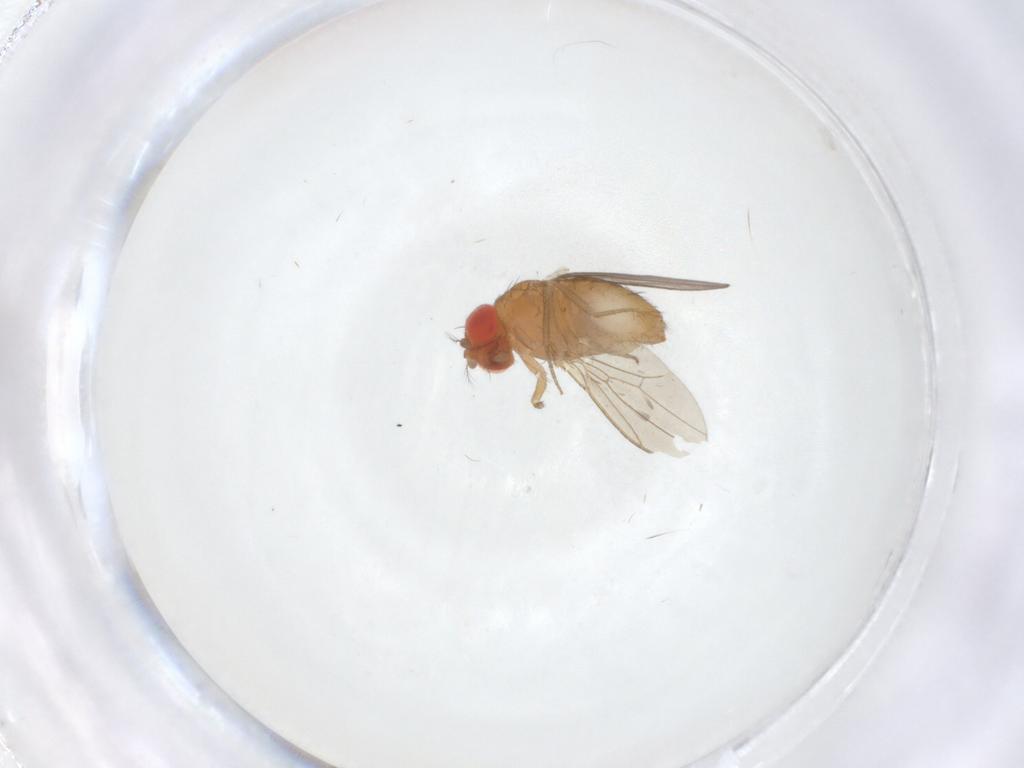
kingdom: Animalia
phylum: Arthropoda
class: Insecta
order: Diptera
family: Drosophilidae
